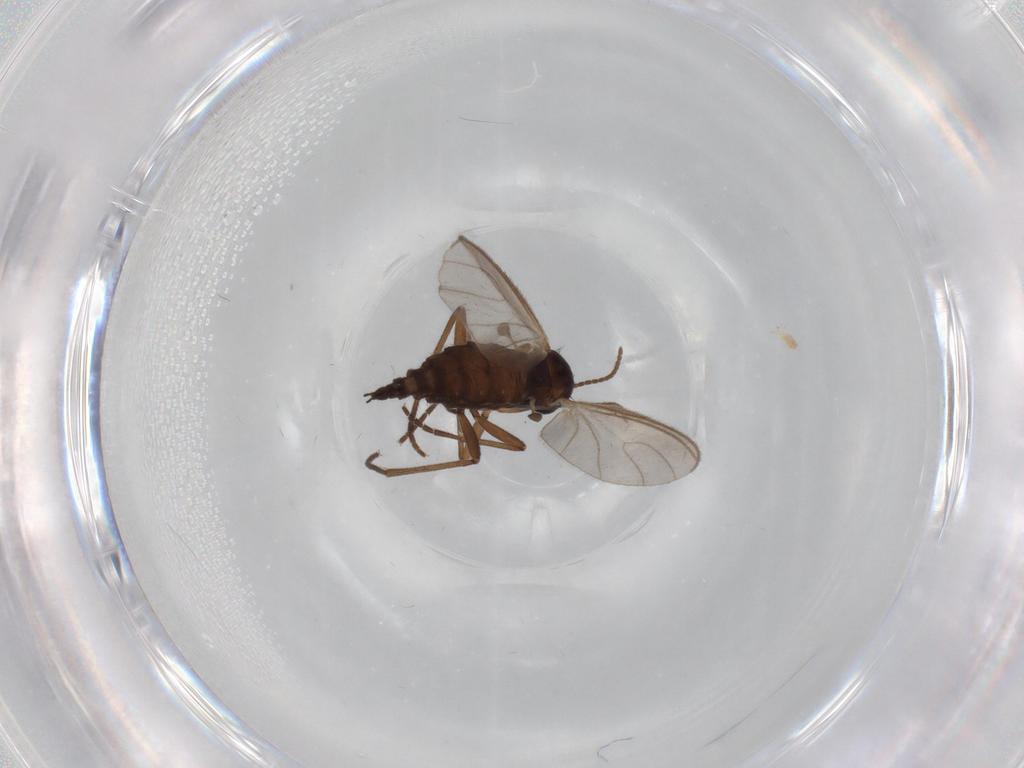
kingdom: Animalia
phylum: Arthropoda
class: Insecta
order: Diptera
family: Sciaridae
